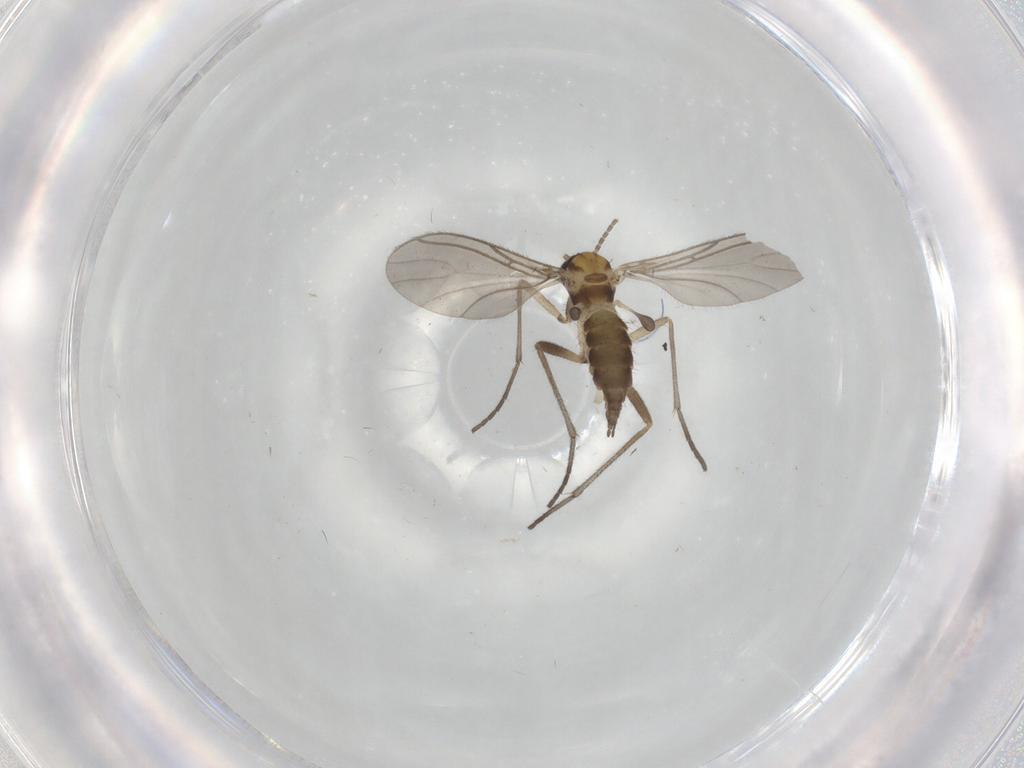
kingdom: Animalia
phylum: Arthropoda
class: Insecta
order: Diptera
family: Sciaridae
